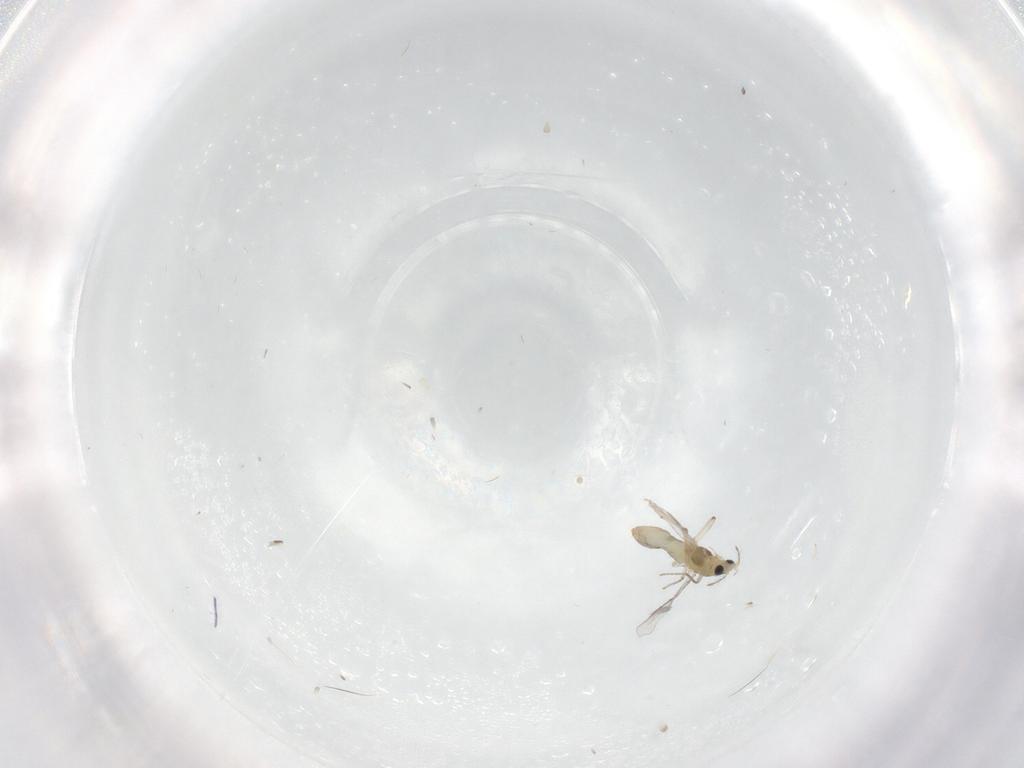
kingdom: Animalia
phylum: Arthropoda
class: Insecta
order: Diptera
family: Chironomidae
